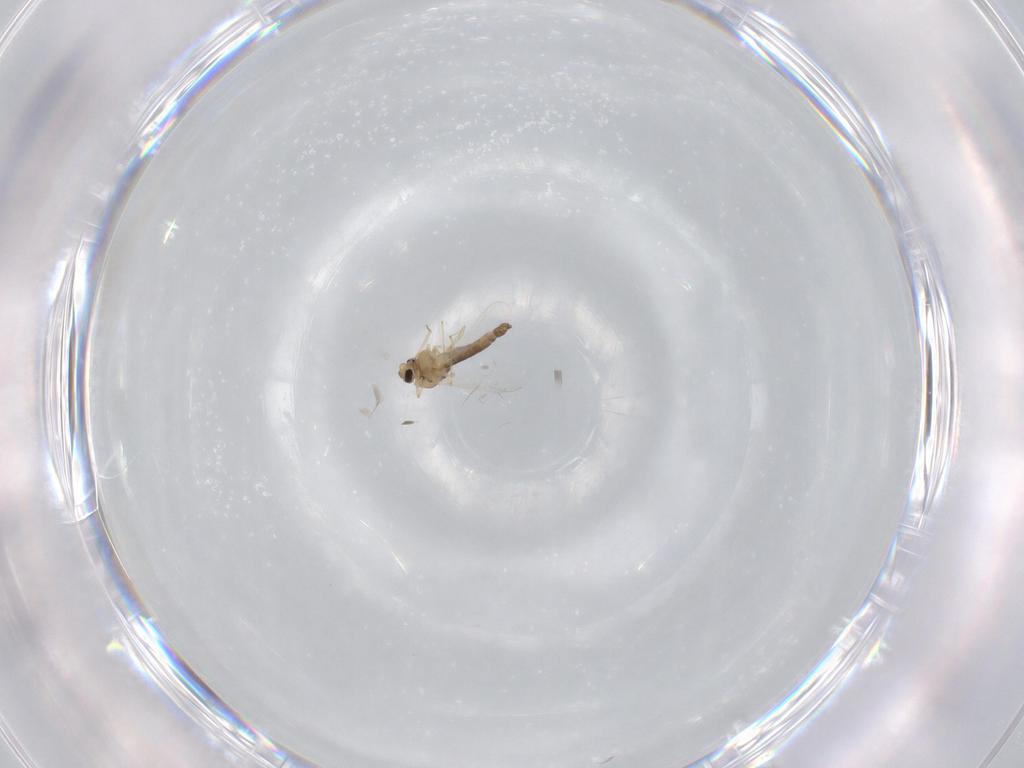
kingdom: Animalia
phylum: Arthropoda
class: Insecta
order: Diptera
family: Chironomidae
